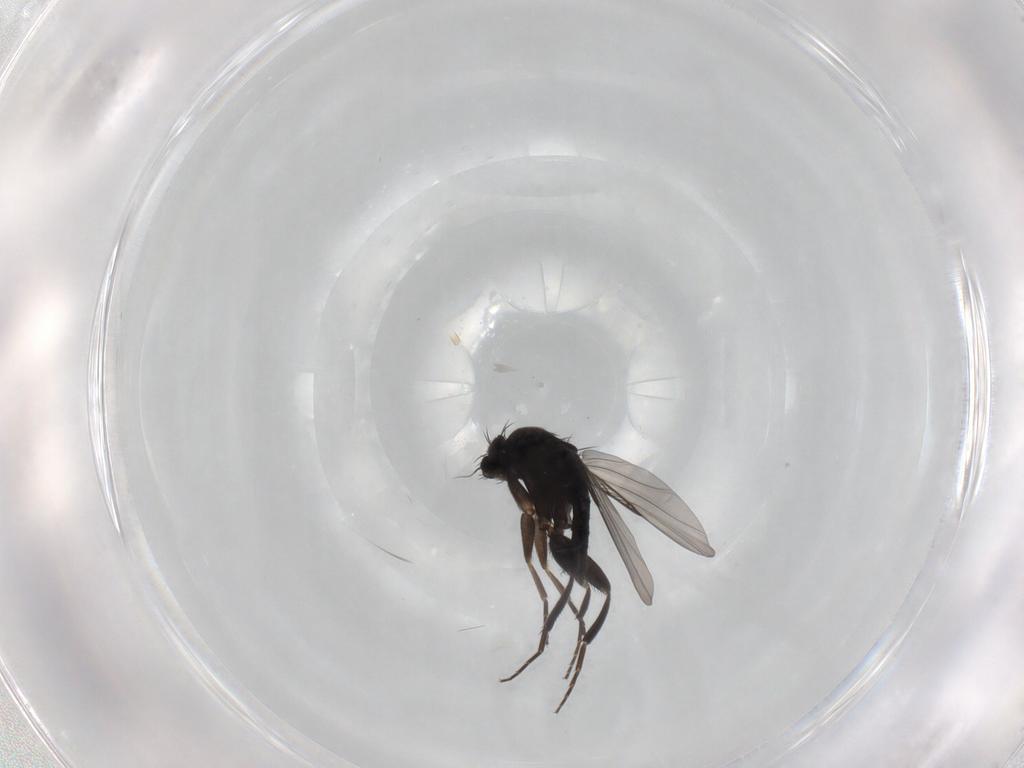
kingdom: Animalia
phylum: Arthropoda
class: Insecta
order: Diptera
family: Phoridae
